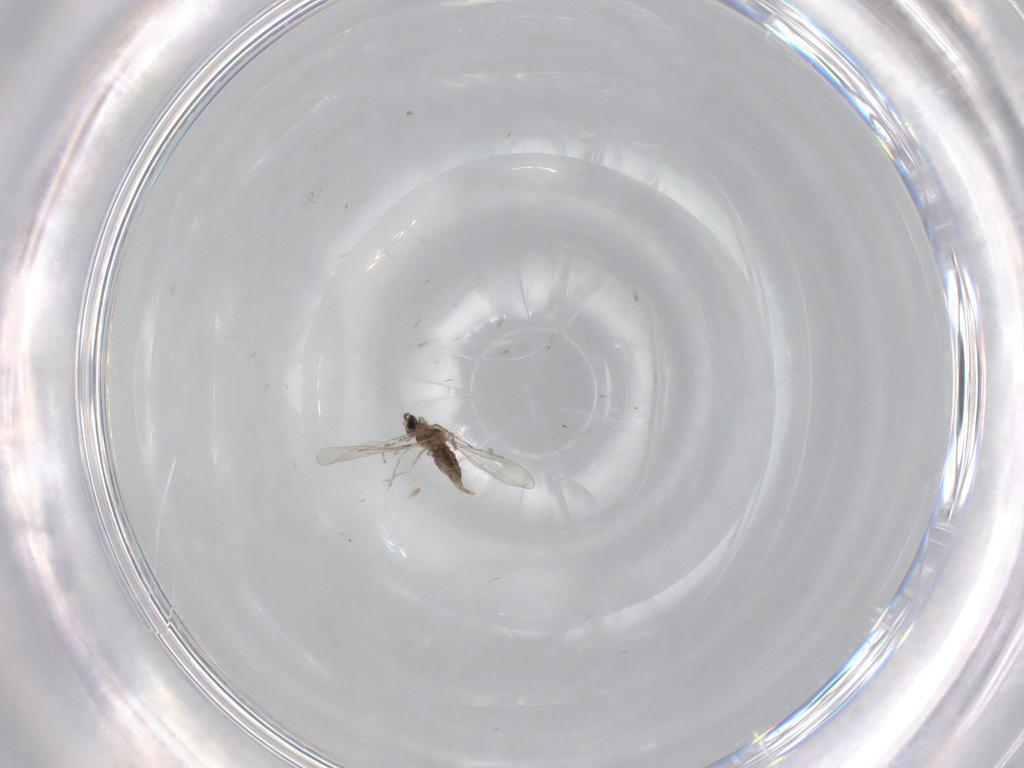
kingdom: Animalia
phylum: Arthropoda
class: Insecta
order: Diptera
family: Cecidomyiidae
